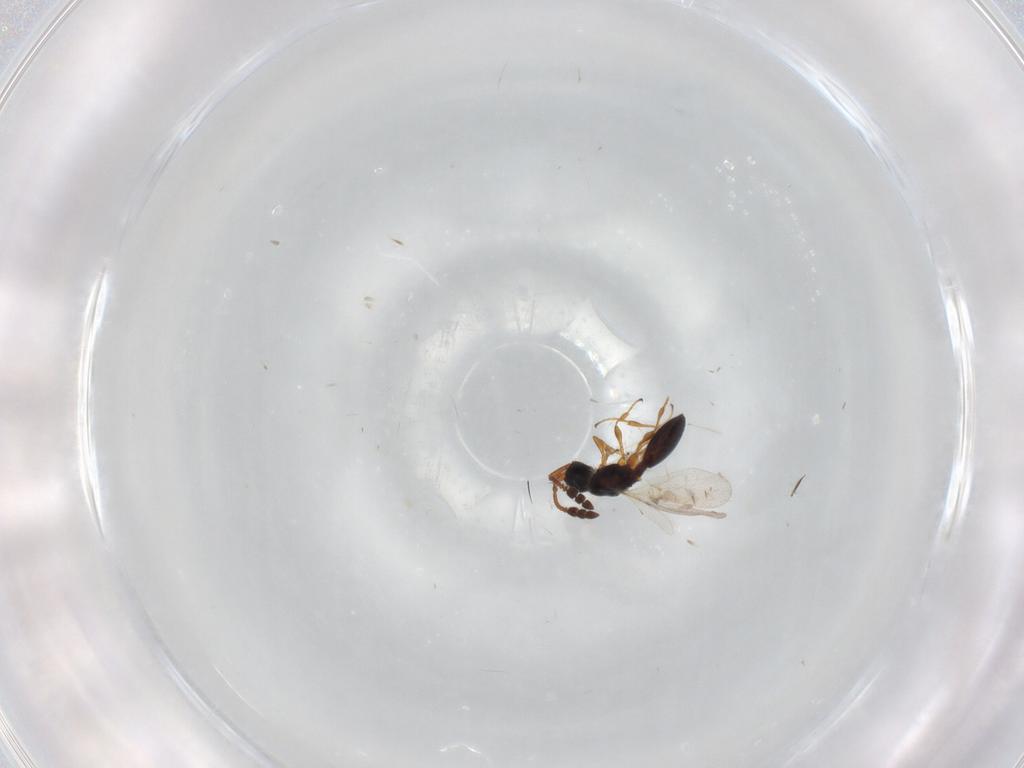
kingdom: Animalia
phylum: Arthropoda
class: Insecta
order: Hymenoptera
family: Diapriidae
